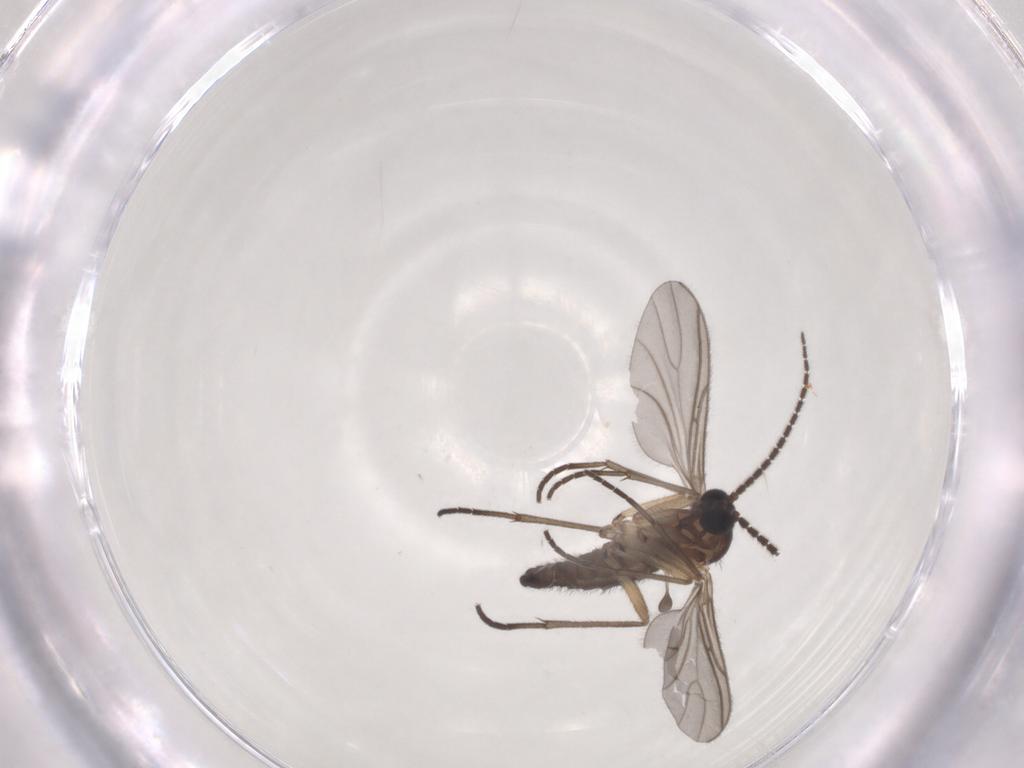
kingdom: Animalia
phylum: Arthropoda
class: Insecta
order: Diptera
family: Sciaridae
